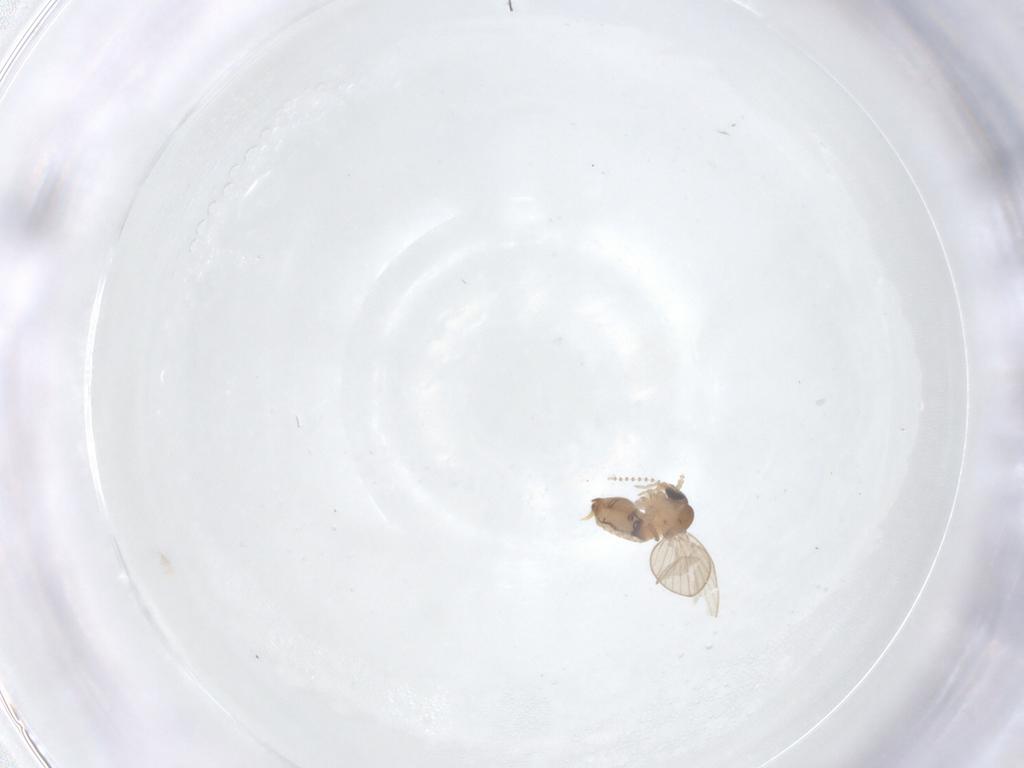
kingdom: Animalia
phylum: Arthropoda
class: Insecta
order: Diptera
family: Psychodidae
